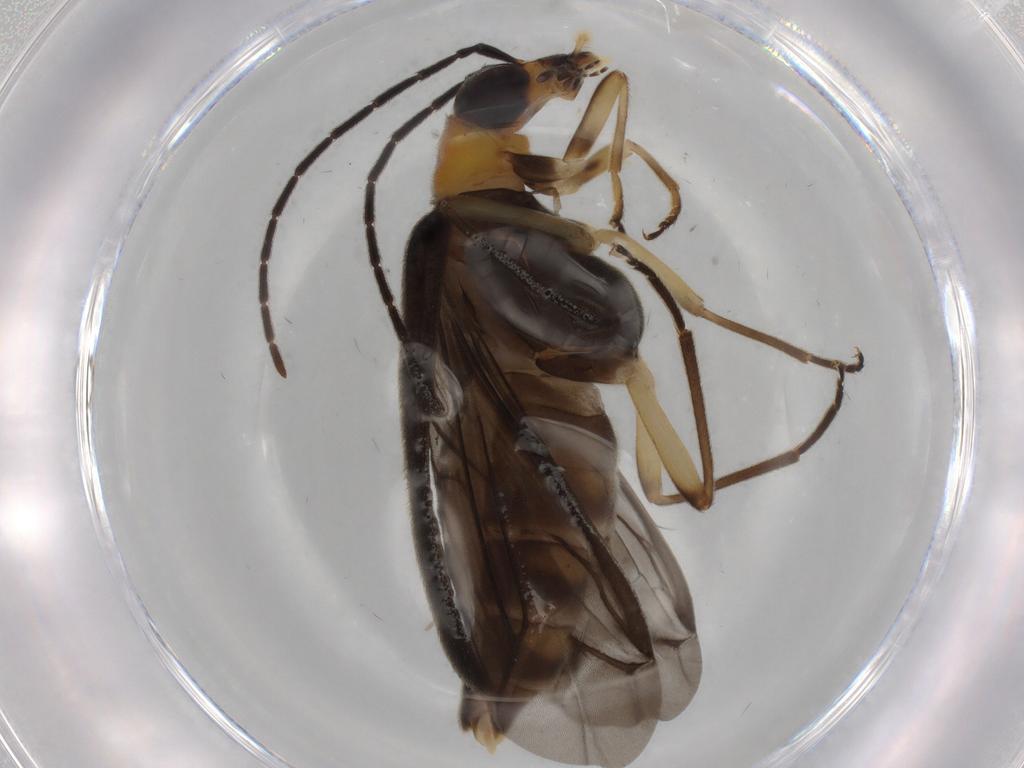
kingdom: Animalia
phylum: Arthropoda
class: Insecta
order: Coleoptera
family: Oedemeridae
